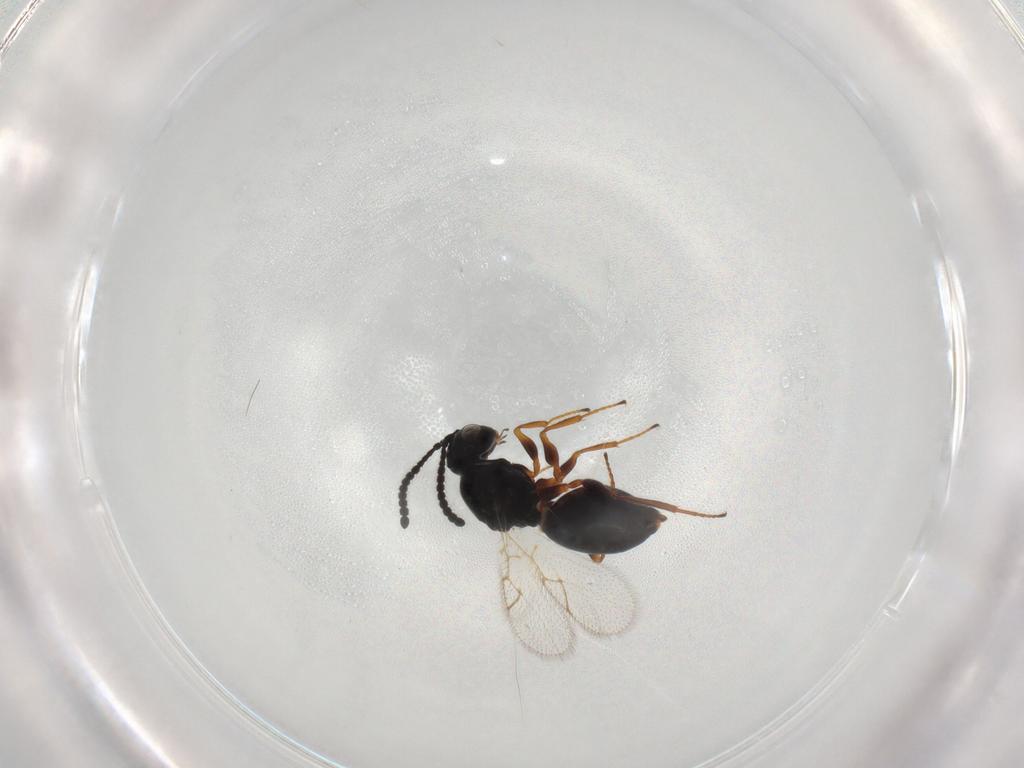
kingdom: Animalia
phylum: Arthropoda
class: Insecta
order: Hymenoptera
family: Figitidae
